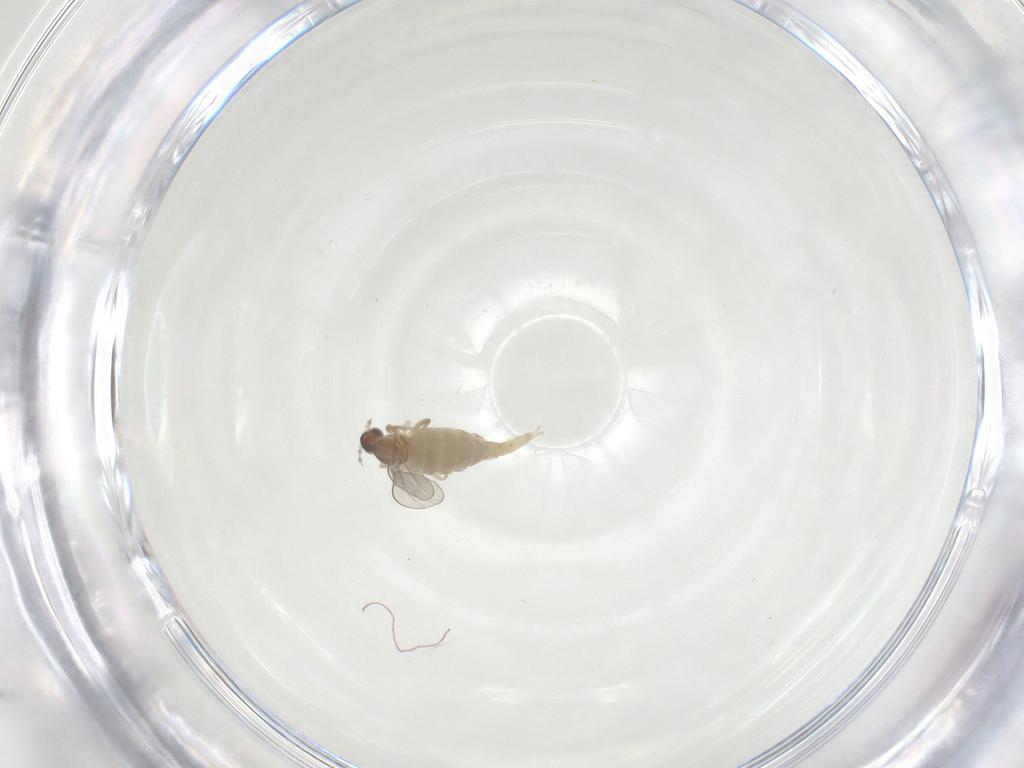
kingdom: Animalia
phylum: Arthropoda
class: Insecta
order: Diptera
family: Cecidomyiidae
